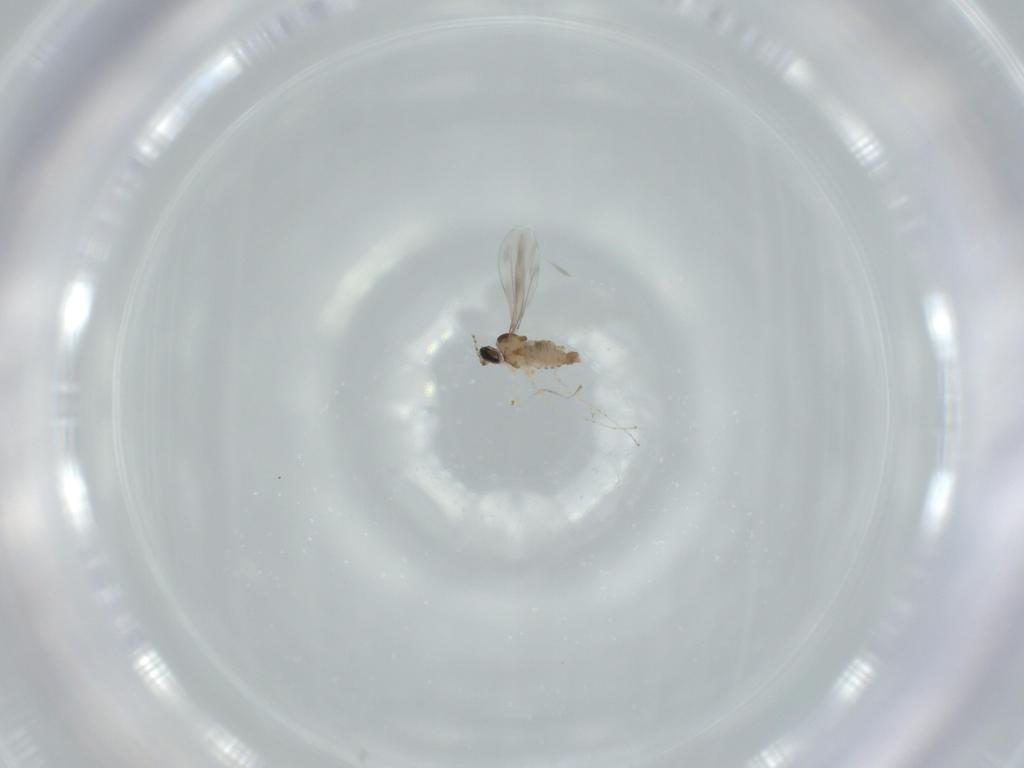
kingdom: Animalia
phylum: Arthropoda
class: Insecta
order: Diptera
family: Cecidomyiidae
